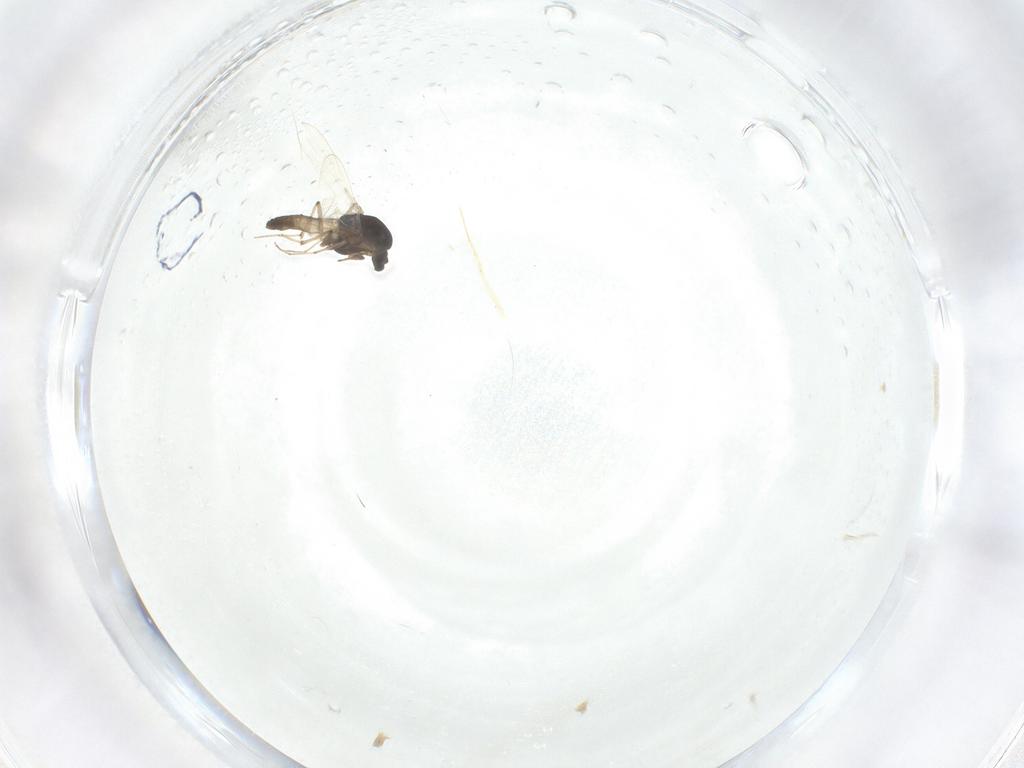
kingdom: Animalia
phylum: Arthropoda
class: Insecta
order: Diptera
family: Chironomidae
